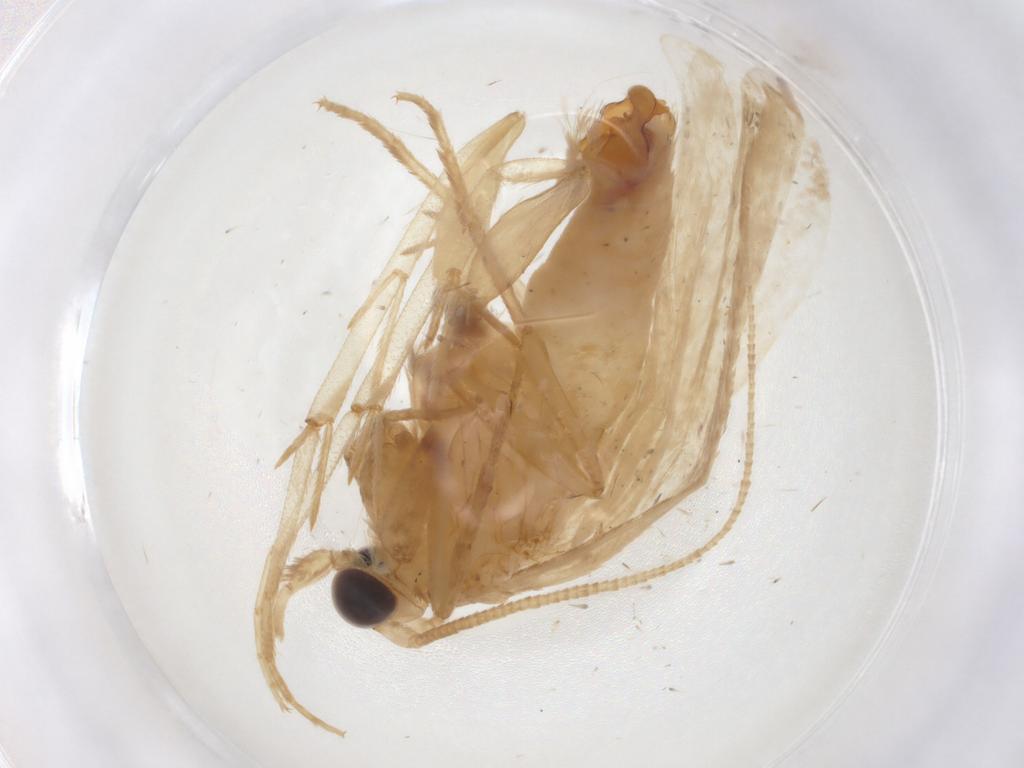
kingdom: Animalia
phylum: Arthropoda
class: Insecta
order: Lepidoptera
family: Tineidae
